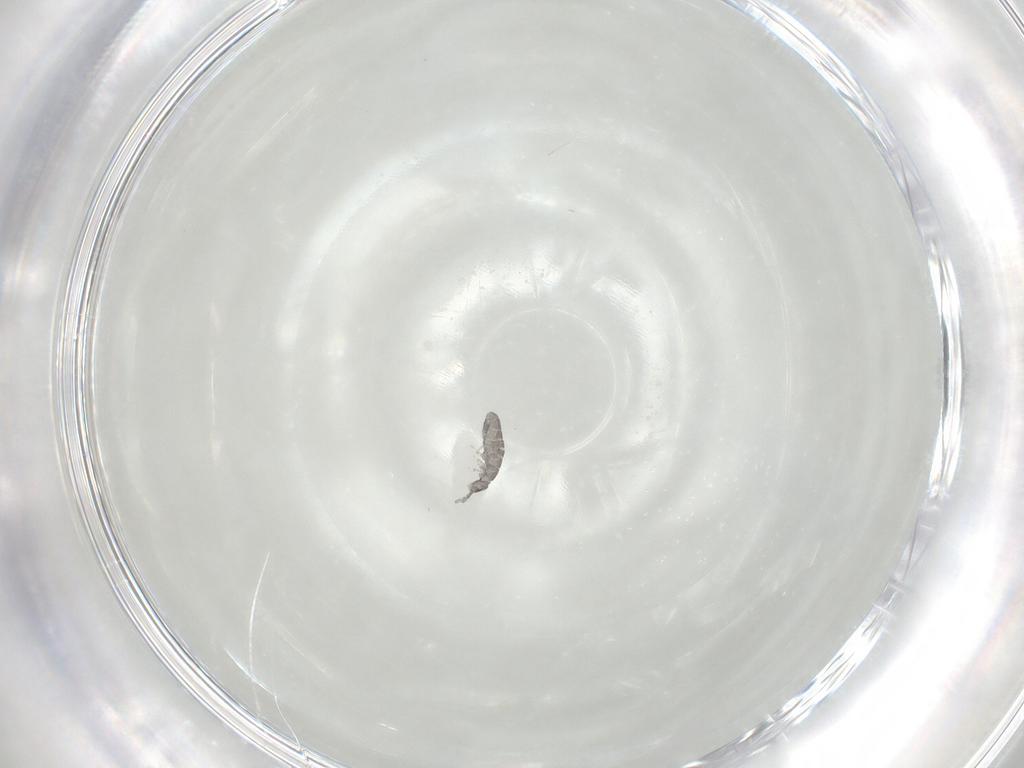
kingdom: Animalia
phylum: Arthropoda
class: Collembola
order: Entomobryomorpha
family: Isotomidae
